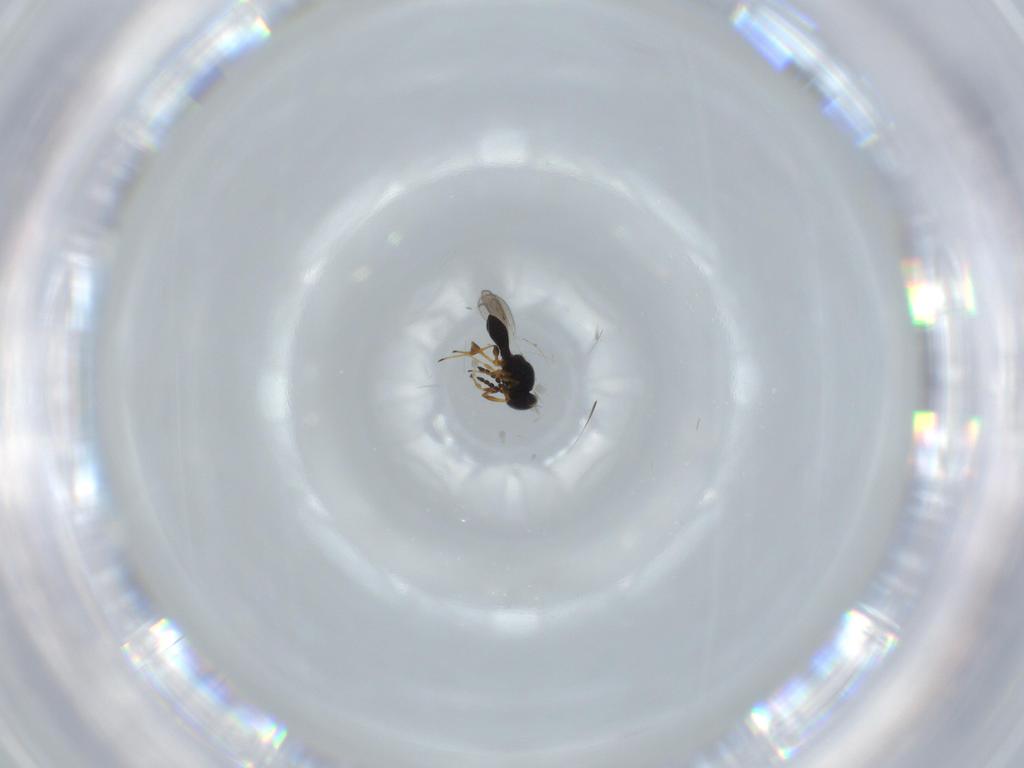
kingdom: Animalia
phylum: Arthropoda
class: Insecta
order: Hymenoptera
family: Platygastridae
